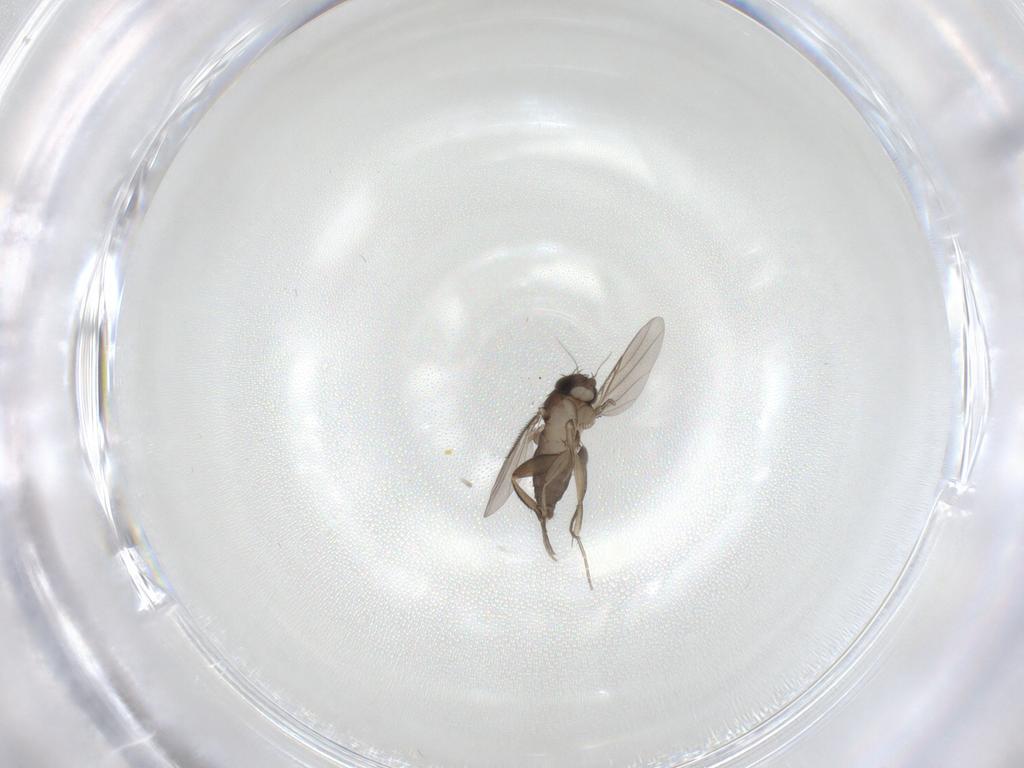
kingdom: Animalia
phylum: Arthropoda
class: Insecta
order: Diptera
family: Phoridae
